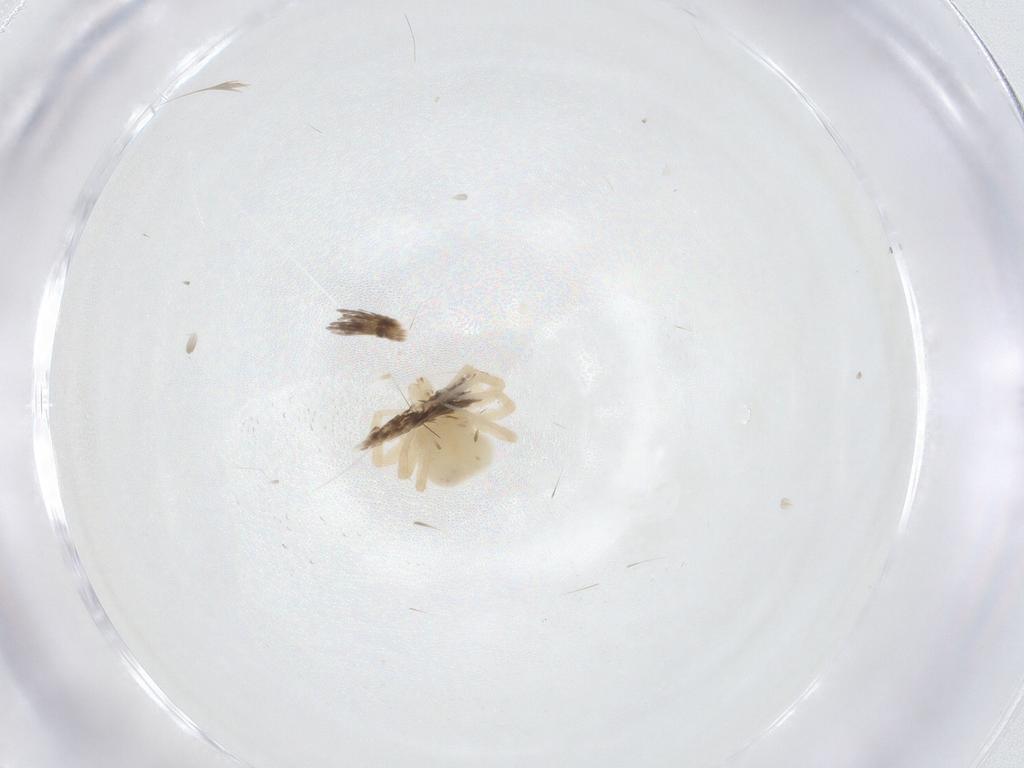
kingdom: Animalia
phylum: Arthropoda
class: Arachnida
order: Trombidiformes
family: Anystidae
